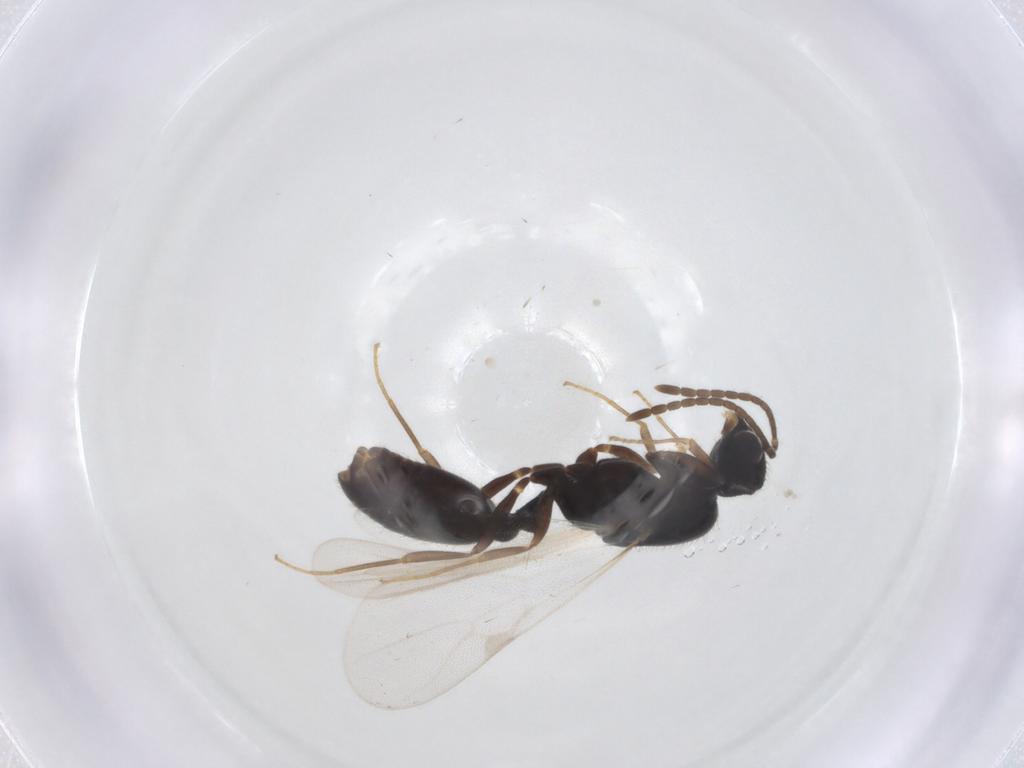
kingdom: Animalia
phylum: Arthropoda
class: Insecta
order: Hymenoptera
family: Formicidae
